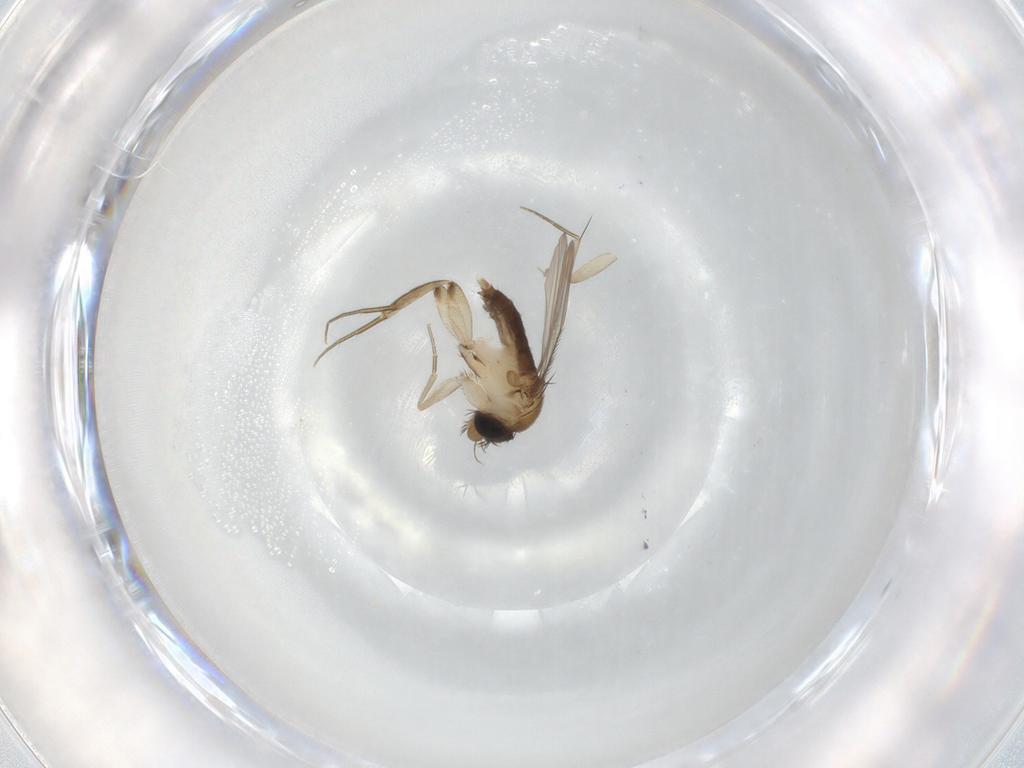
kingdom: Animalia
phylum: Arthropoda
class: Insecta
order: Diptera
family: Phoridae
